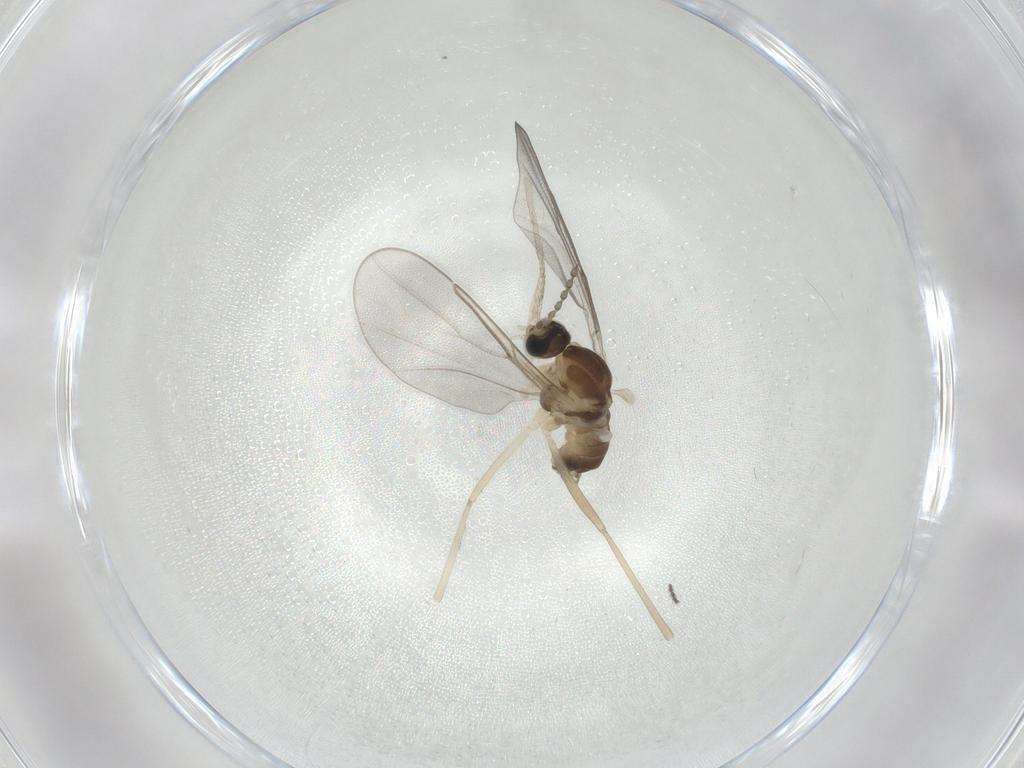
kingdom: Animalia
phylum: Arthropoda
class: Insecta
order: Diptera
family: Cecidomyiidae
